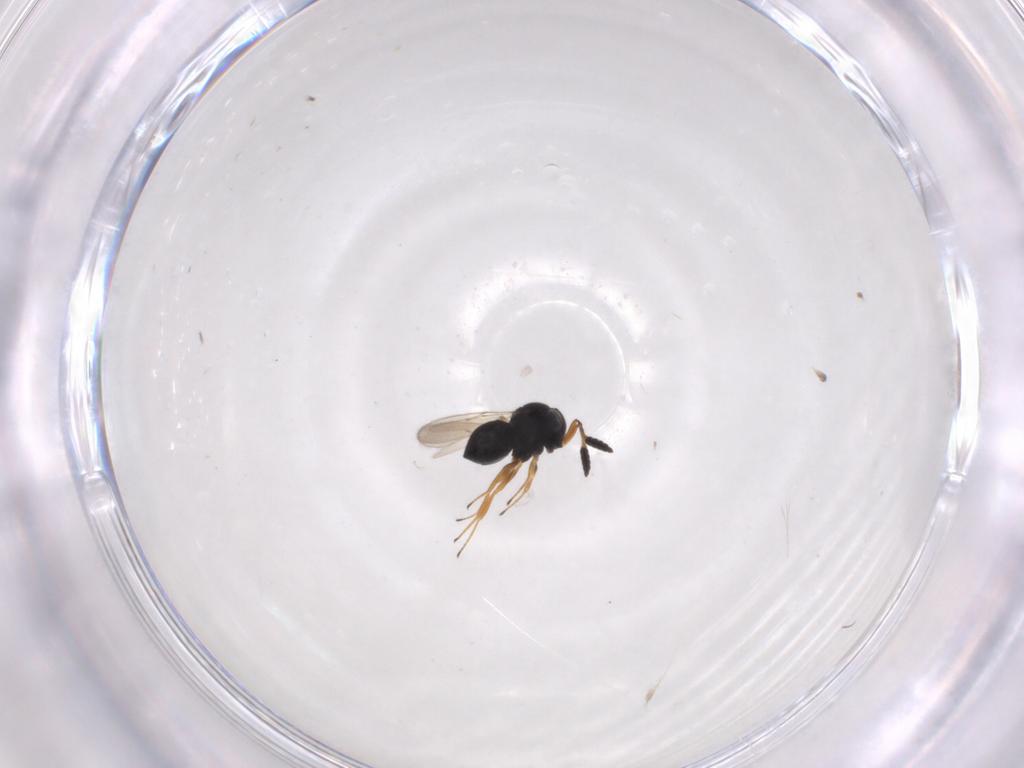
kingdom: Animalia
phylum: Arthropoda
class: Insecta
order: Hymenoptera
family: Scelionidae
